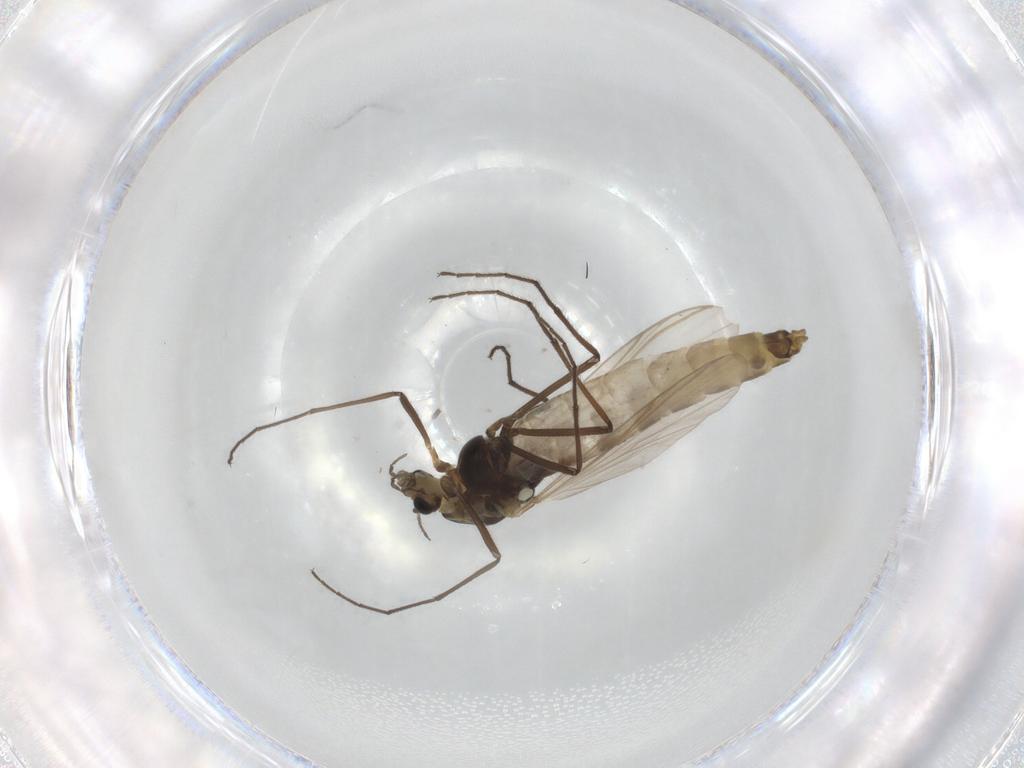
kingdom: Animalia
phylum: Arthropoda
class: Insecta
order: Diptera
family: Chironomidae
